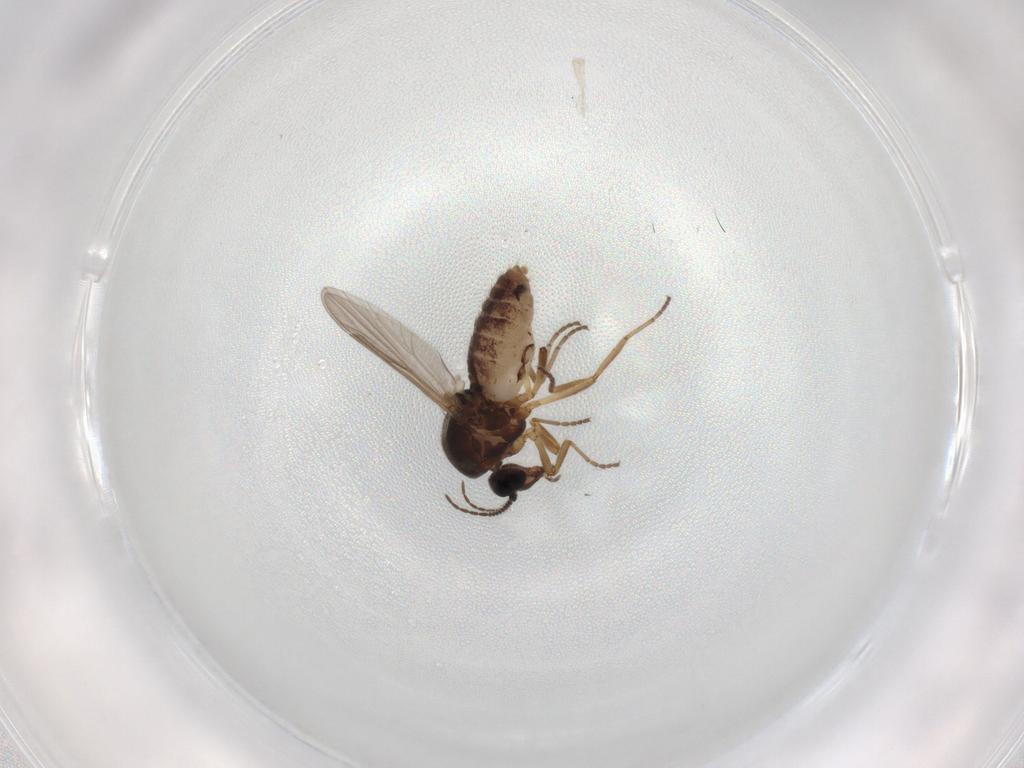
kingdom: Animalia
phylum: Arthropoda
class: Insecta
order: Diptera
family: Ceratopogonidae
